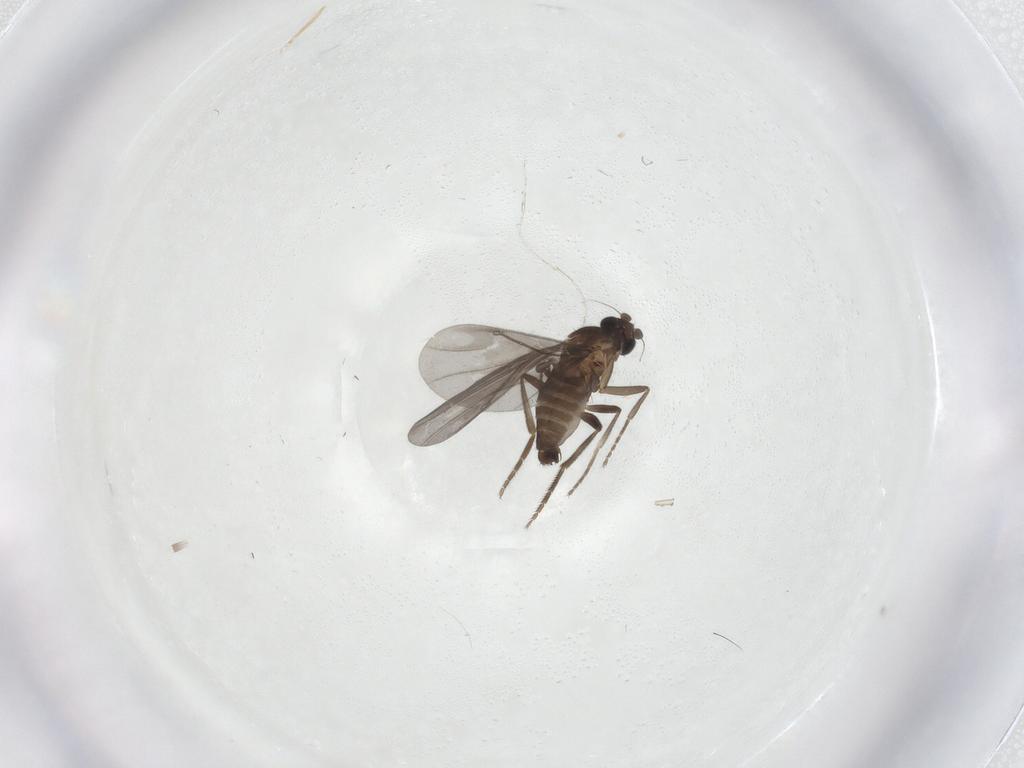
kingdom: Animalia
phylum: Arthropoda
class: Insecta
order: Diptera
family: Phoridae
